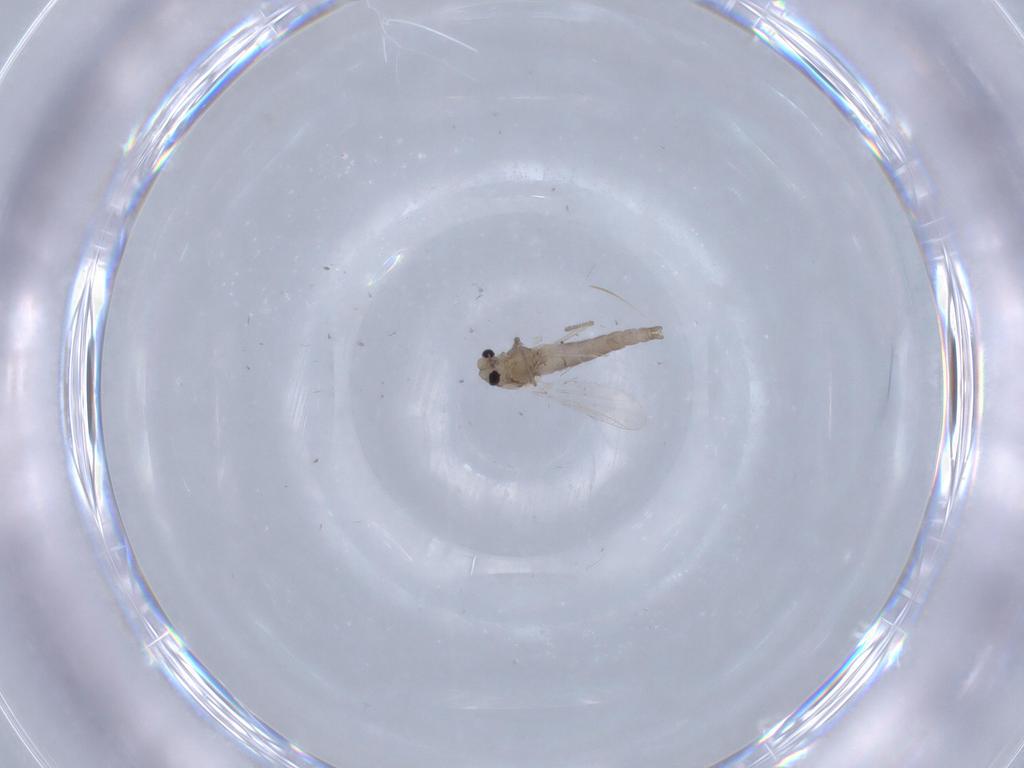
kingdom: Animalia
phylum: Arthropoda
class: Insecta
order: Diptera
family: Chironomidae
